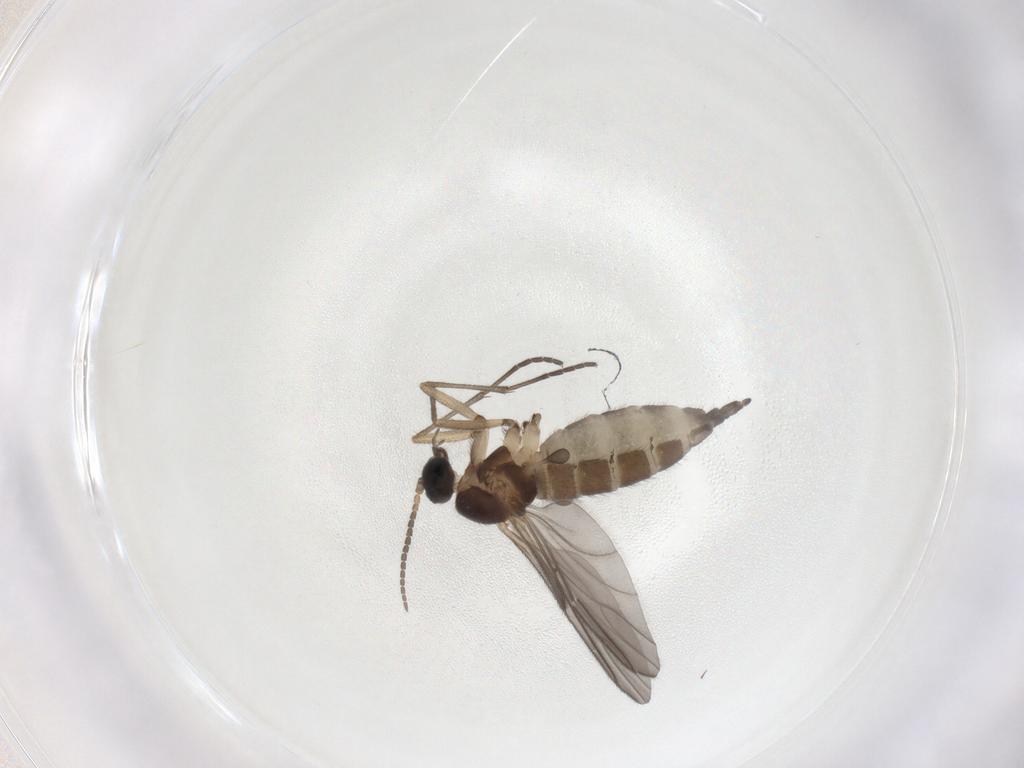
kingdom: Animalia
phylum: Arthropoda
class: Insecta
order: Diptera
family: Sciaridae
